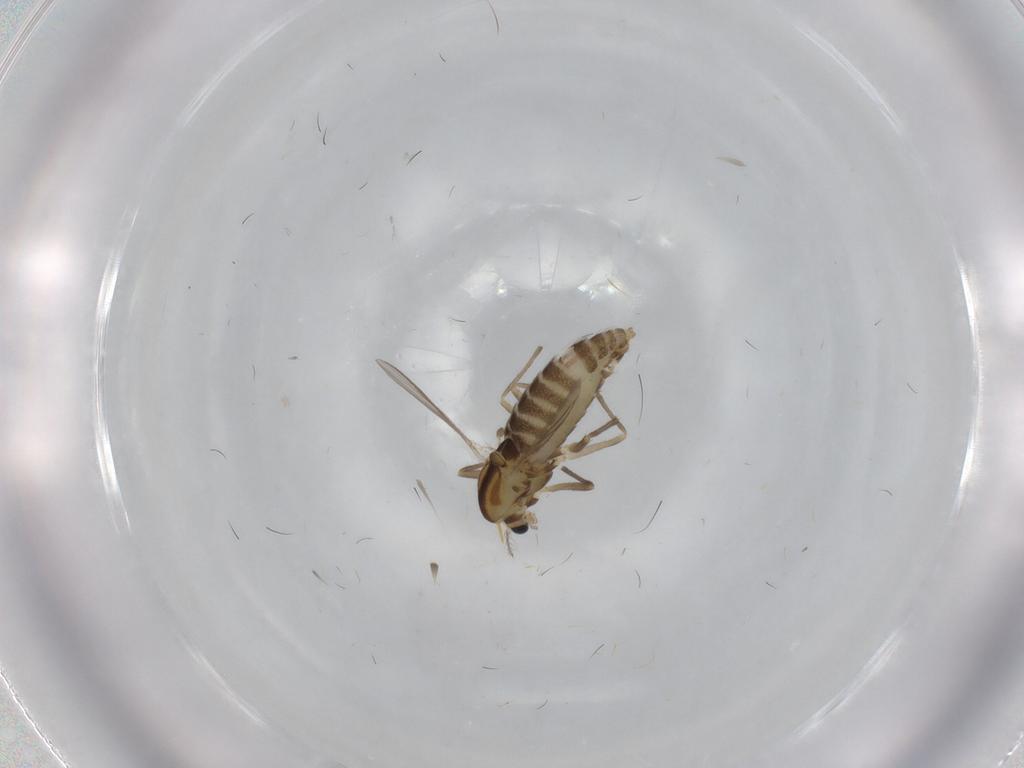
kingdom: Animalia
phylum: Arthropoda
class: Insecta
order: Diptera
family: Chironomidae
